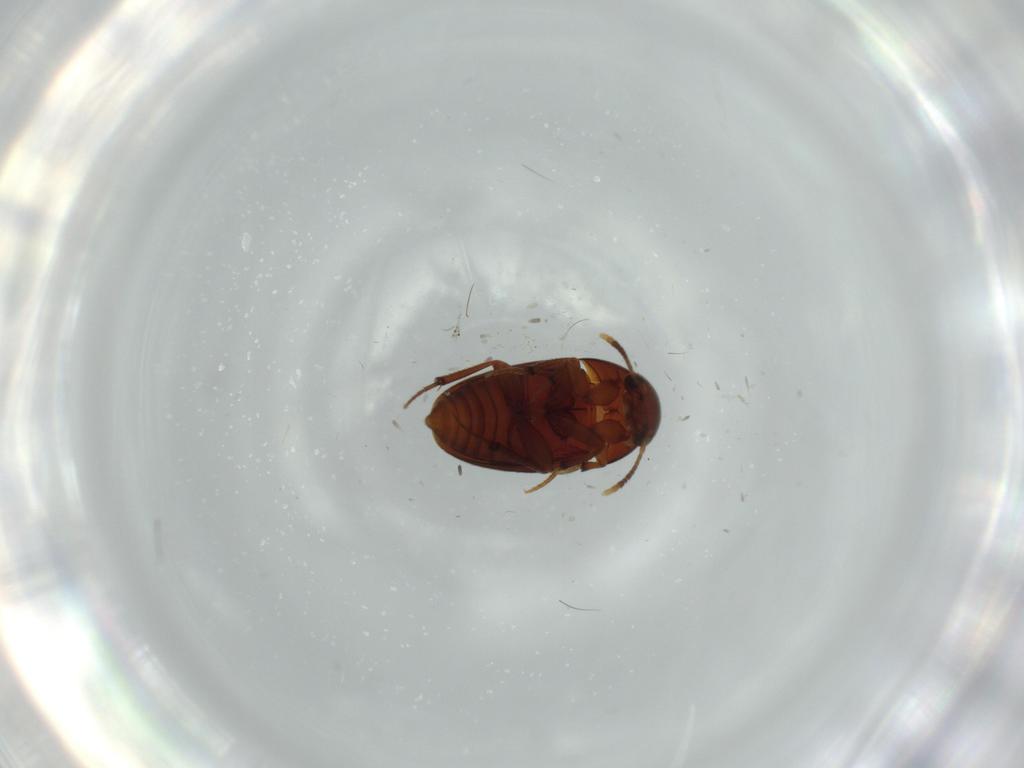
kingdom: Animalia
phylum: Arthropoda
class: Insecta
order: Coleoptera
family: Leiodidae
